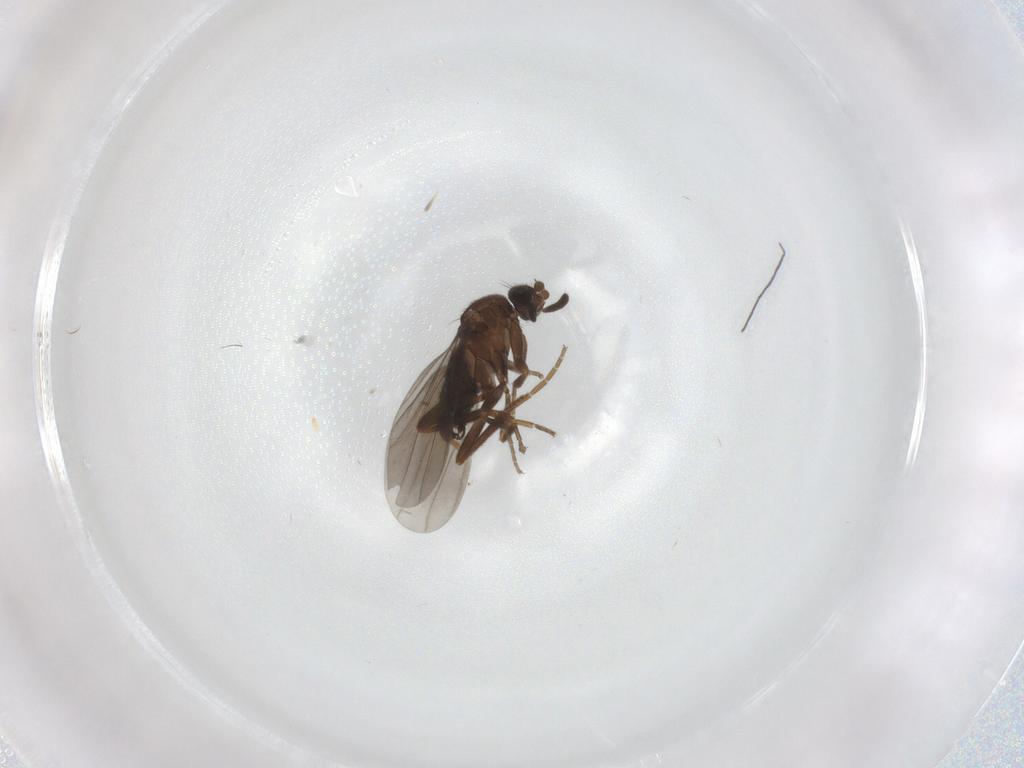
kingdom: Animalia
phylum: Arthropoda
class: Insecta
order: Diptera
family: Phoridae
